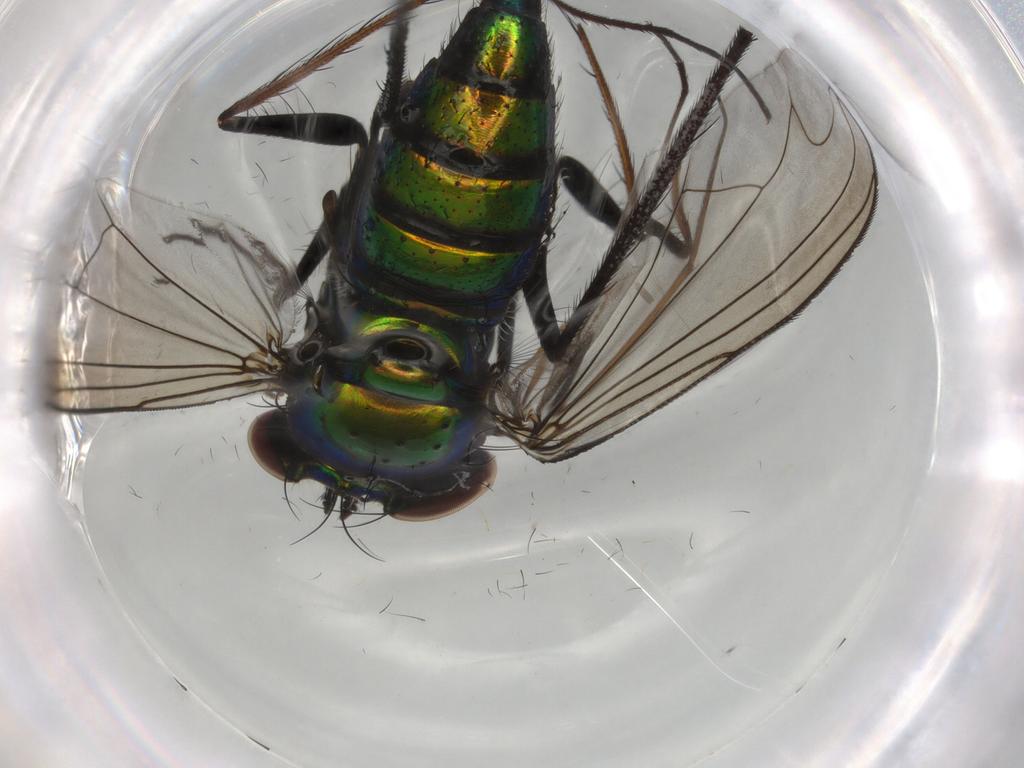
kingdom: Animalia
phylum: Arthropoda
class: Insecta
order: Diptera
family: Dolichopodidae
